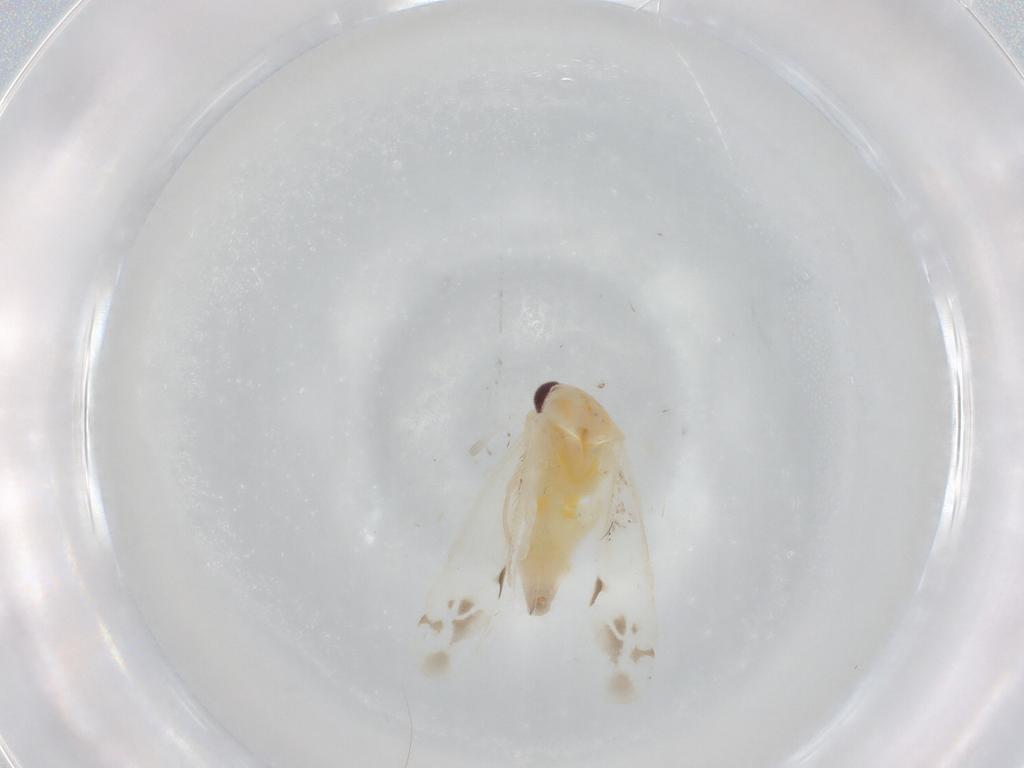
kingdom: Animalia
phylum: Arthropoda
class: Insecta
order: Hemiptera
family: Miridae
